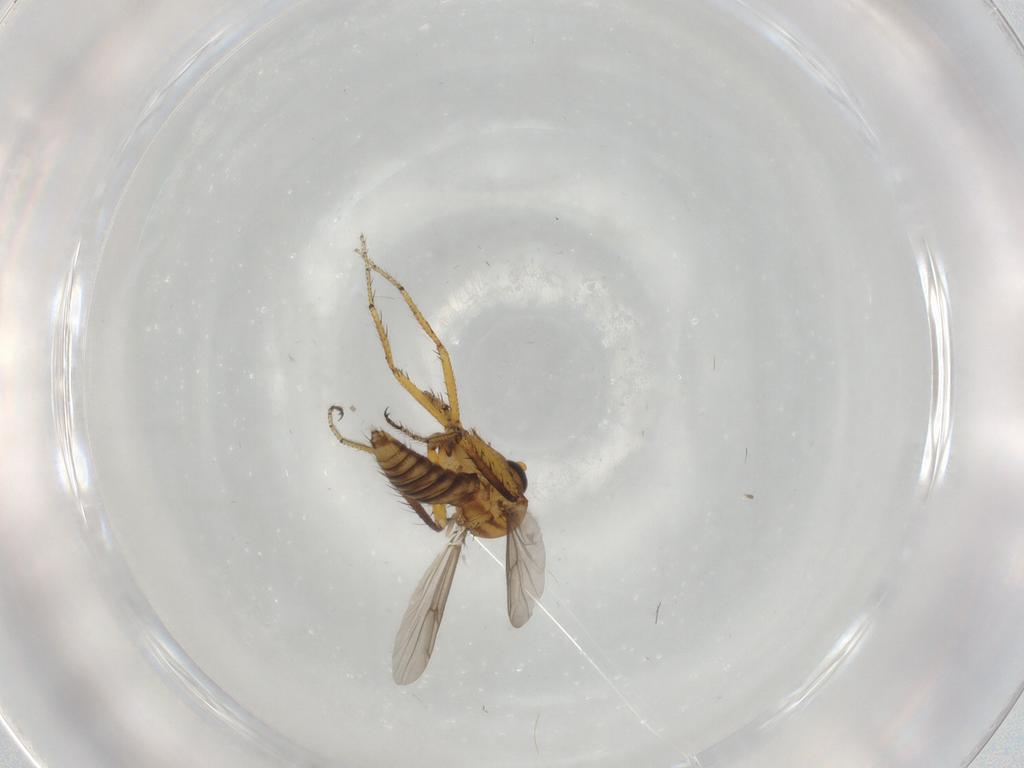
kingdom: Animalia
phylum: Arthropoda
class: Insecta
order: Diptera
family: Ceratopogonidae
